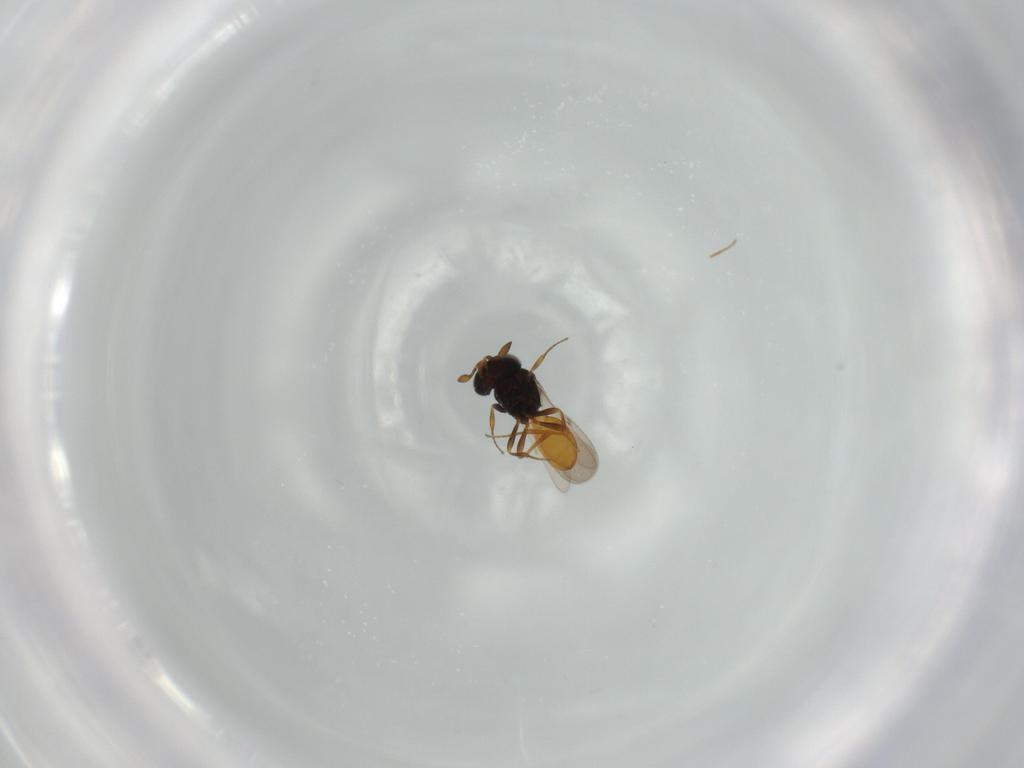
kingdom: Animalia
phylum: Arthropoda
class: Insecta
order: Hymenoptera
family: Scelionidae
